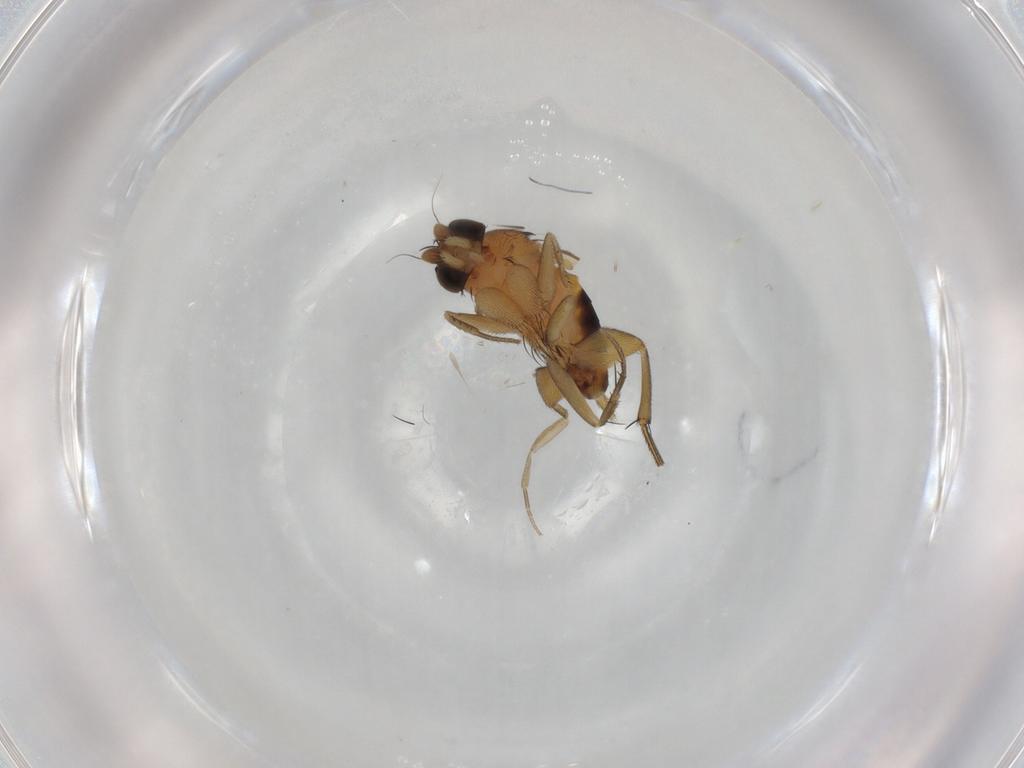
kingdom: Animalia
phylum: Arthropoda
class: Insecta
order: Diptera
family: Phoridae
